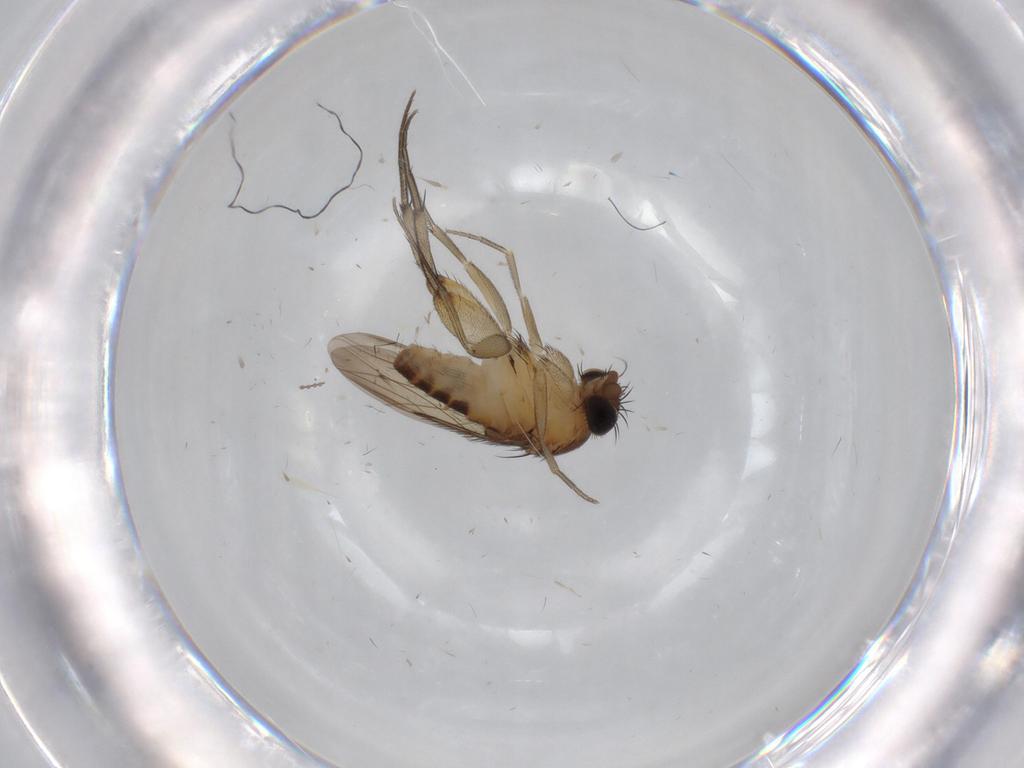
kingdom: Animalia
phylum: Arthropoda
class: Insecta
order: Diptera
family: Phoridae
